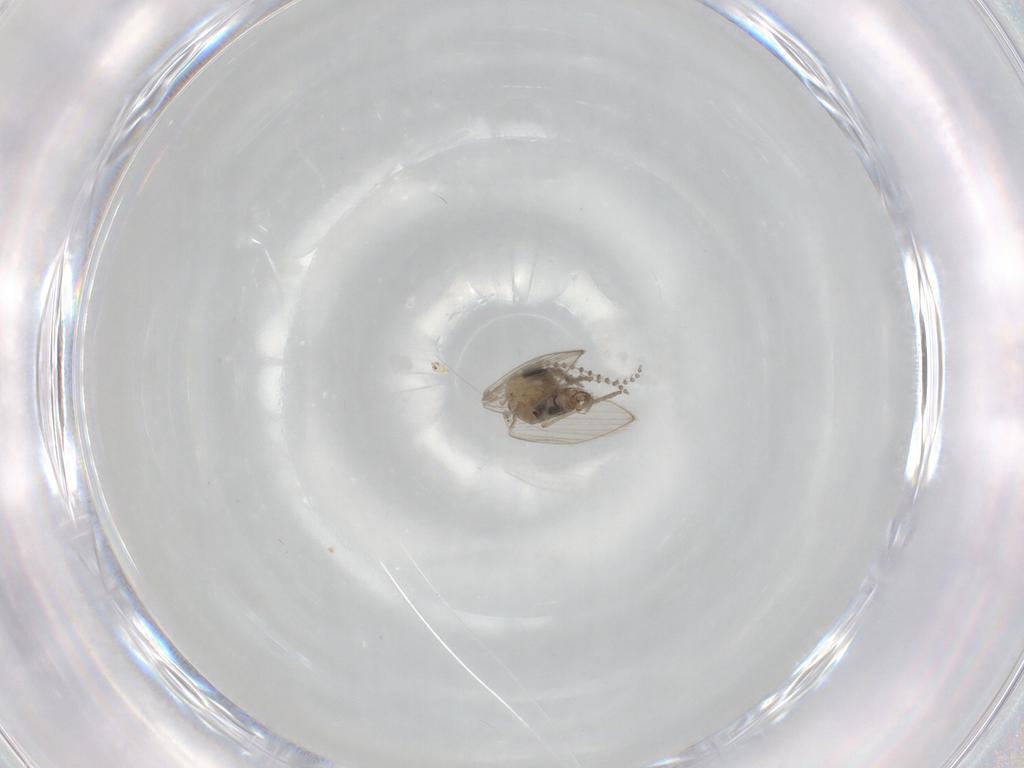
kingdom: Animalia
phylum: Arthropoda
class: Insecta
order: Diptera
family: Psychodidae
